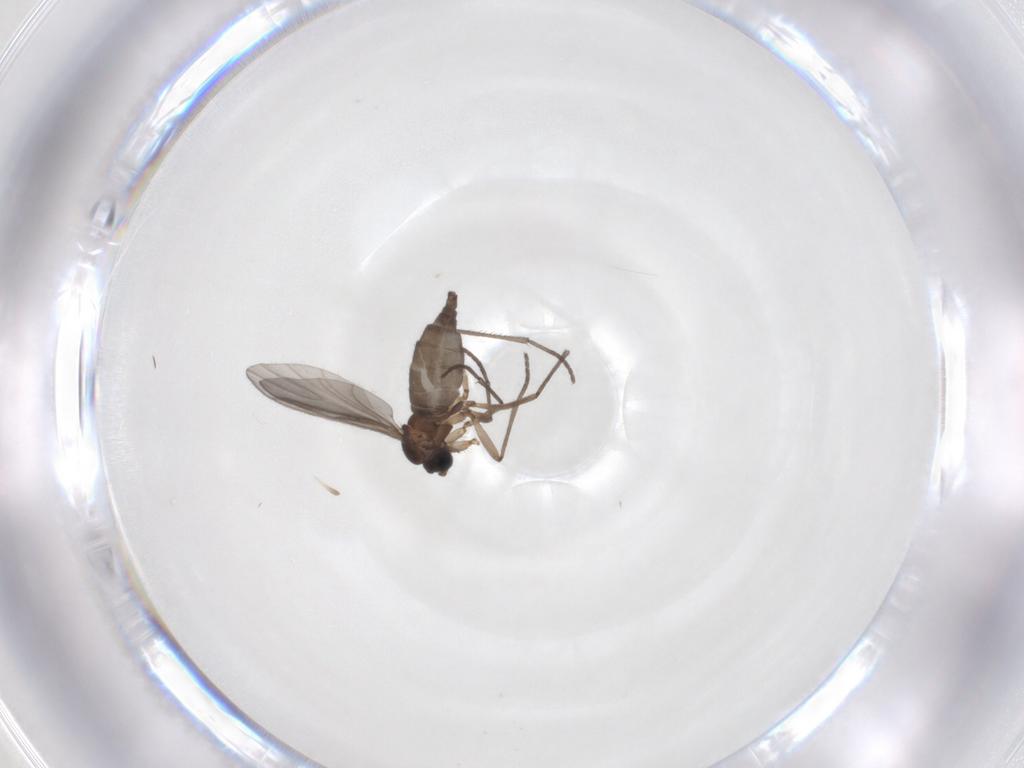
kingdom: Animalia
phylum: Arthropoda
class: Insecta
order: Diptera
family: Sciaridae
